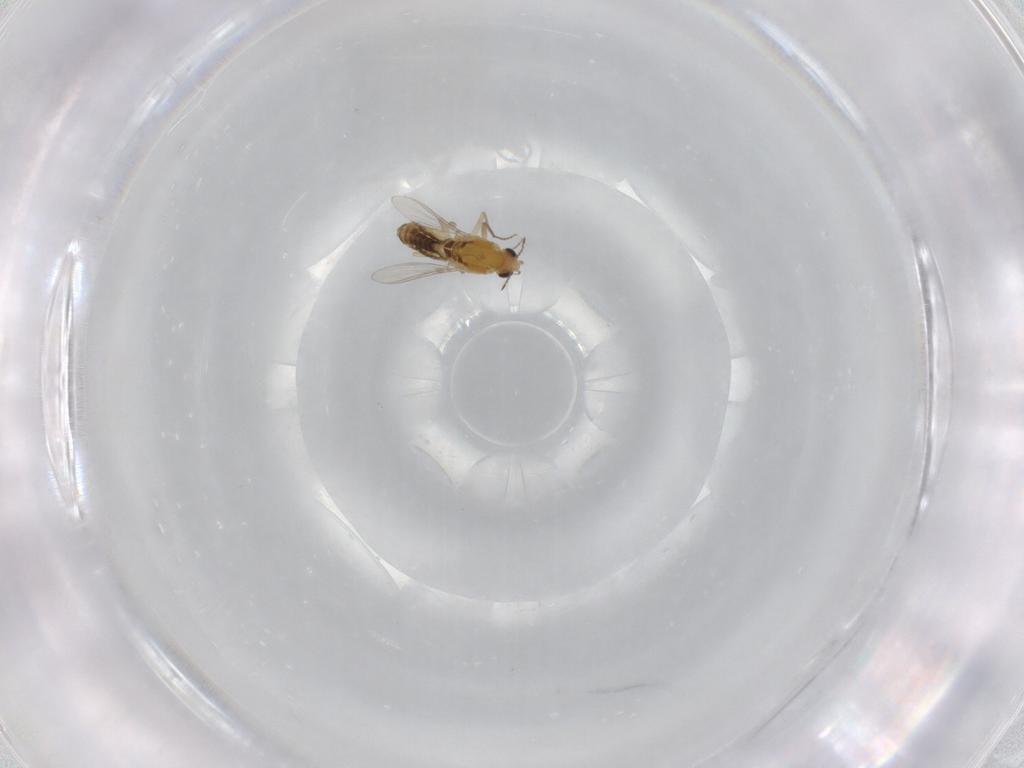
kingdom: Animalia
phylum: Arthropoda
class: Insecta
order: Diptera
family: Chironomidae
